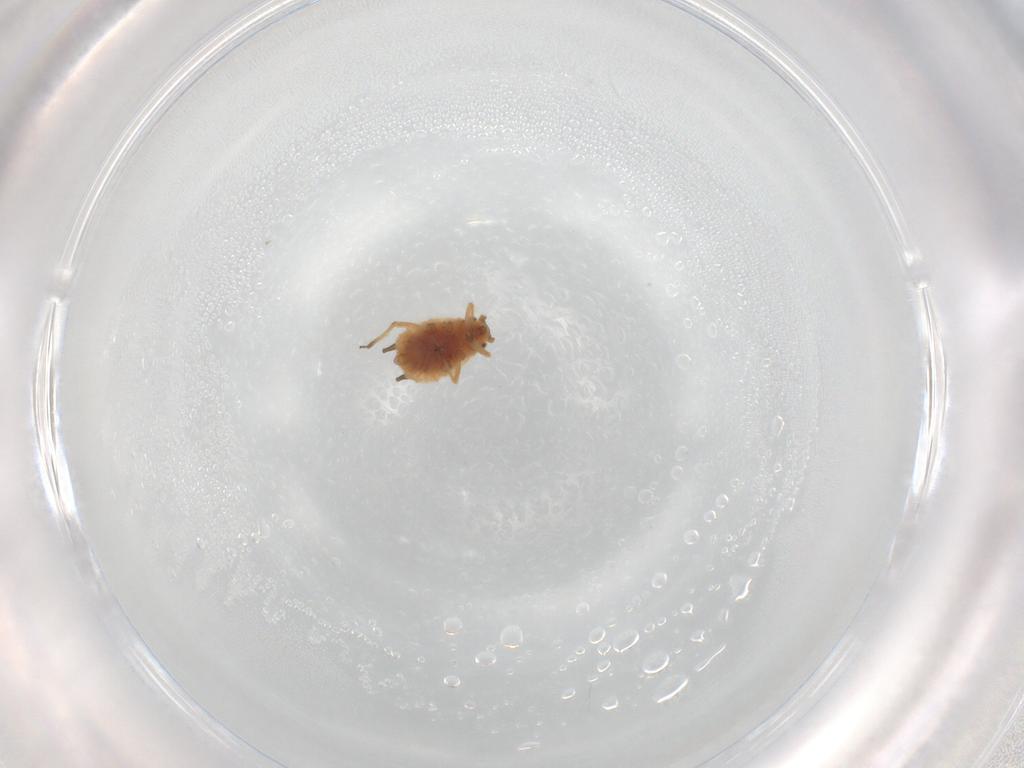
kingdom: Animalia
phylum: Arthropoda
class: Insecta
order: Hemiptera
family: Aphididae
